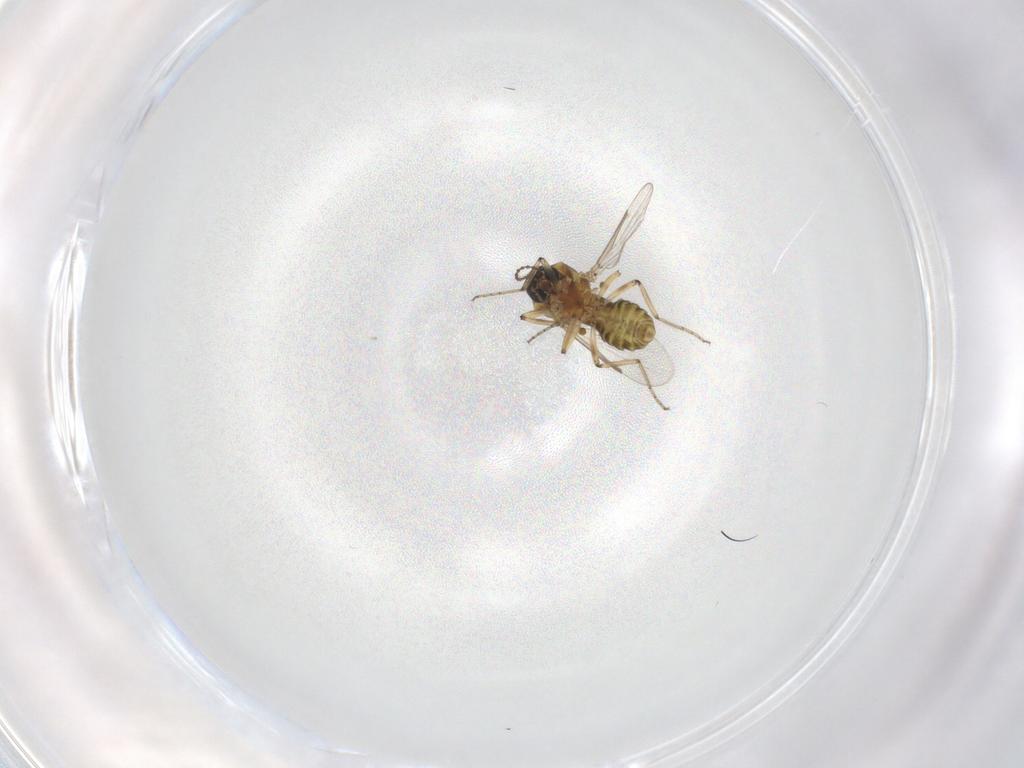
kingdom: Animalia
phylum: Arthropoda
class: Insecta
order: Diptera
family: Ceratopogonidae
